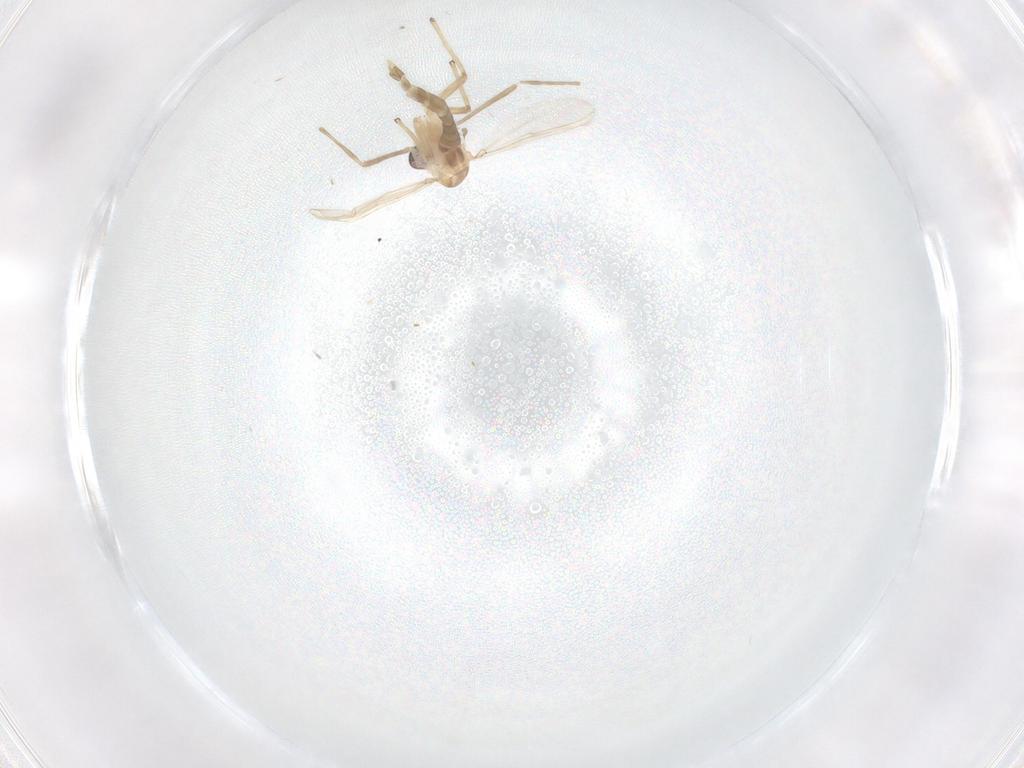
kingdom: Animalia
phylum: Arthropoda
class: Insecta
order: Diptera
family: Chironomidae
